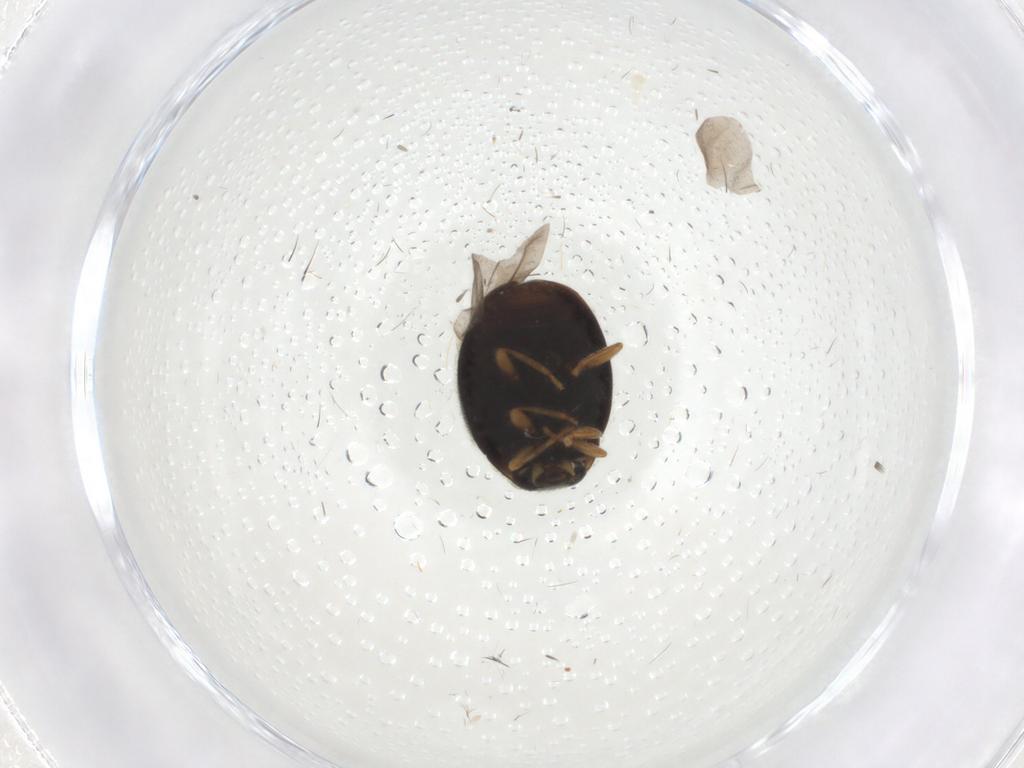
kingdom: Animalia
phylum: Arthropoda
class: Insecta
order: Coleoptera
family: Coccinellidae
